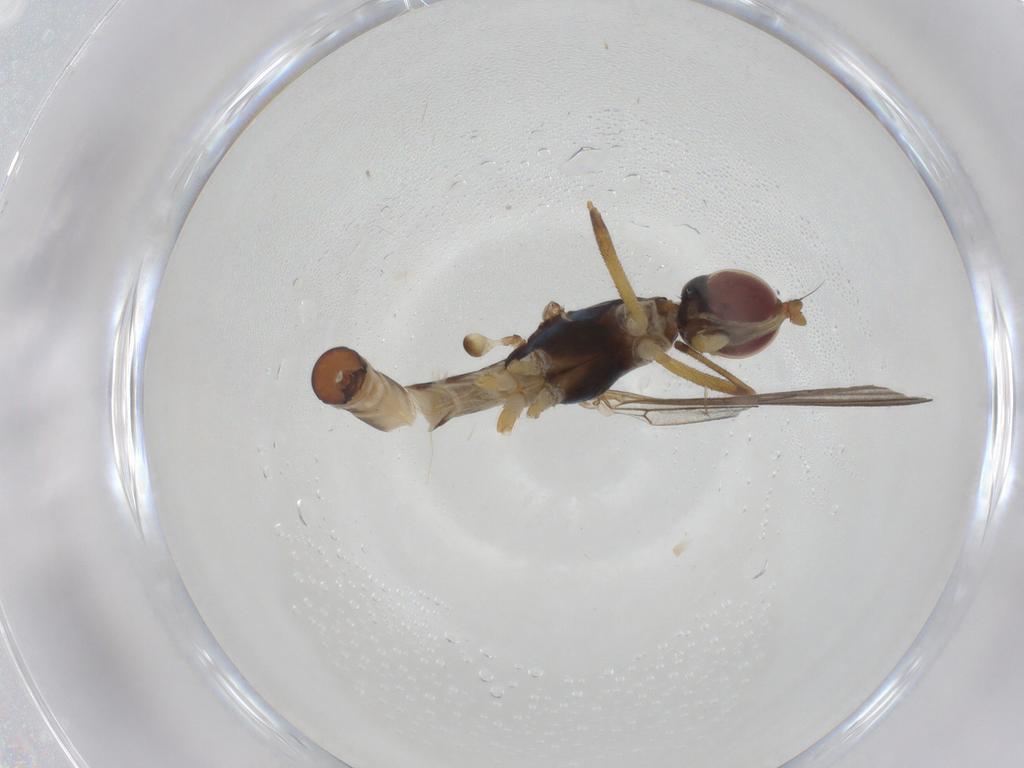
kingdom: Animalia
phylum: Arthropoda
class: Insecta
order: Diptera
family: Micropezidae
